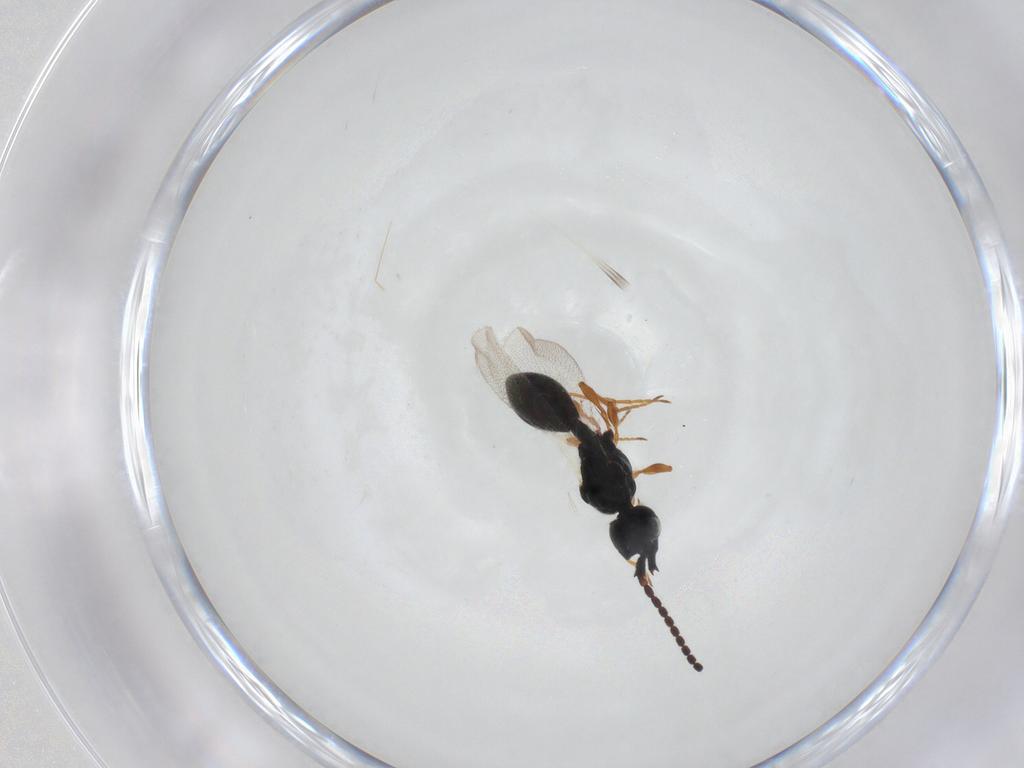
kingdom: Animalia
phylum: Arthropoda
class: Insecta
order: Hymenoptera
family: Diapriidae
